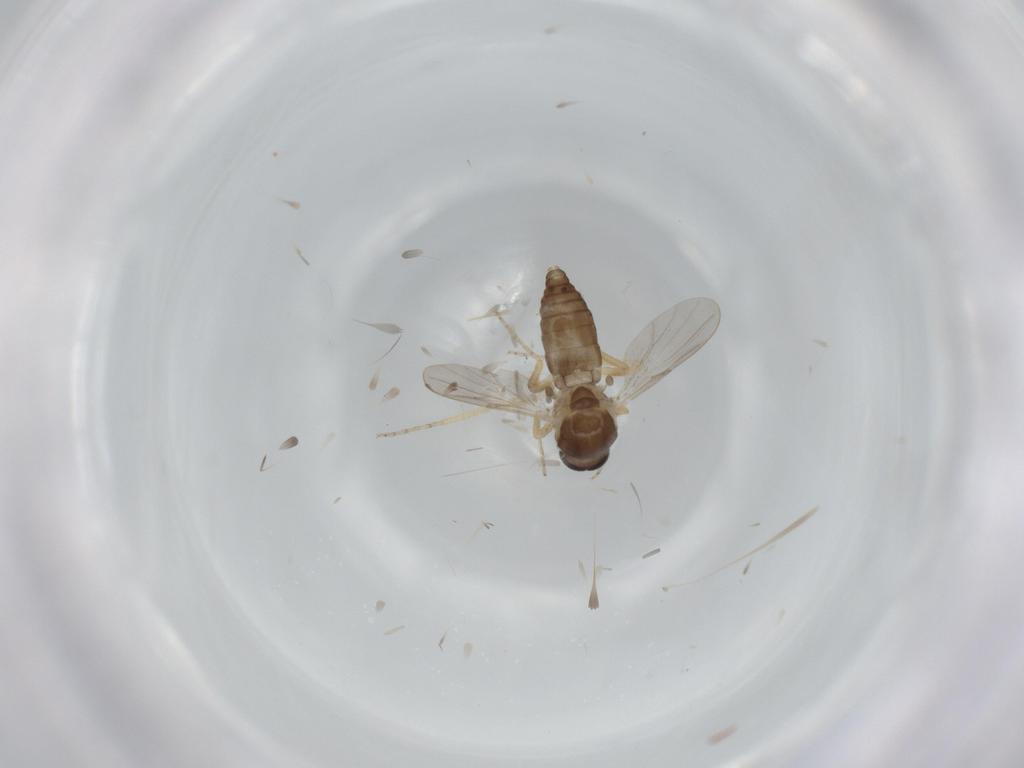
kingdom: Animalia
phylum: Arthropoda
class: Insecta
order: Diptera
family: Ceratopogonidae
